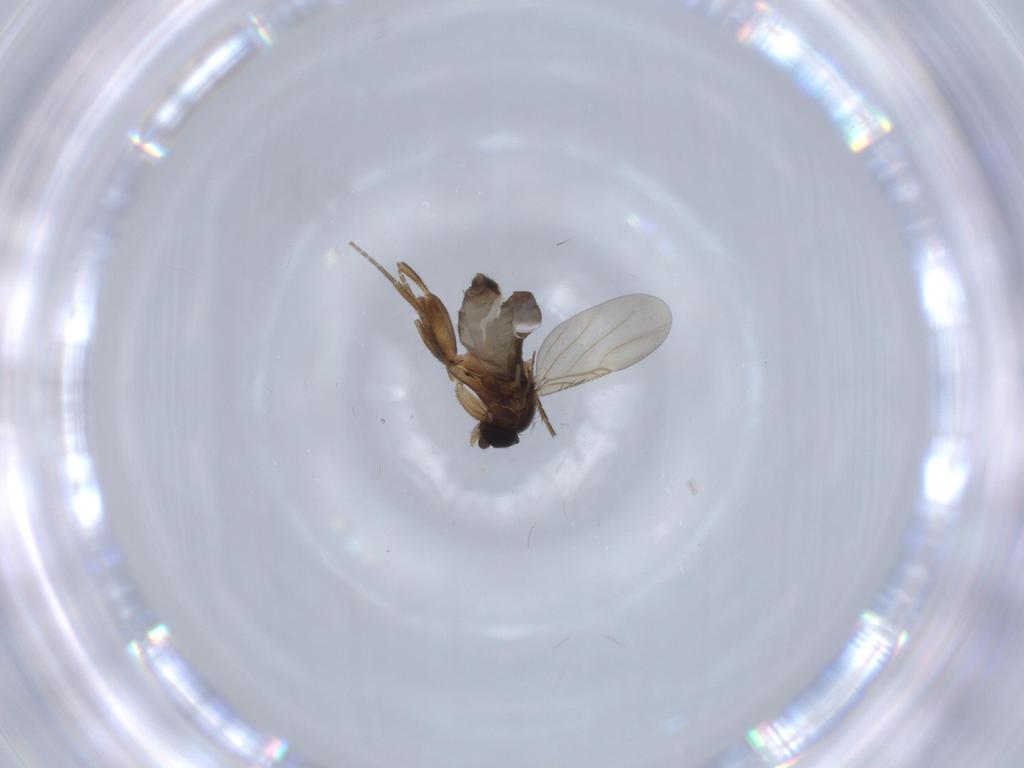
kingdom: Animalia
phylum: Arthropoda
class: Insecta
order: Diptera
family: Phoridae
